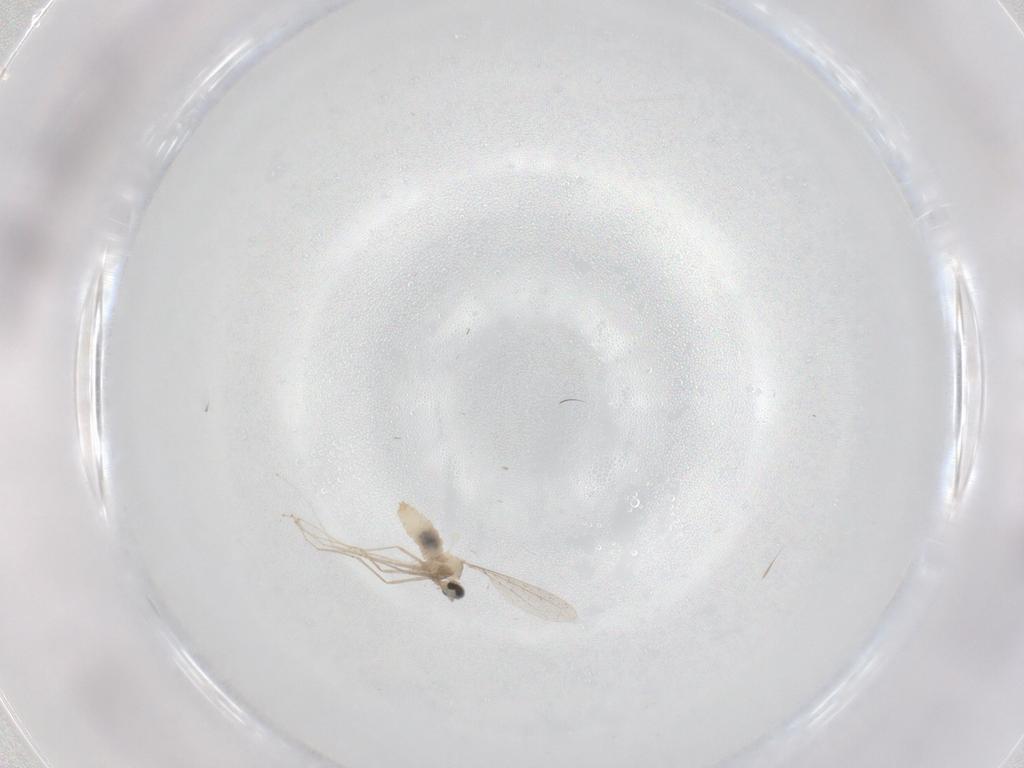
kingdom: Animalia
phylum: Arthropoda
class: Insecta
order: Diptera
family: Cecidomyiidae
